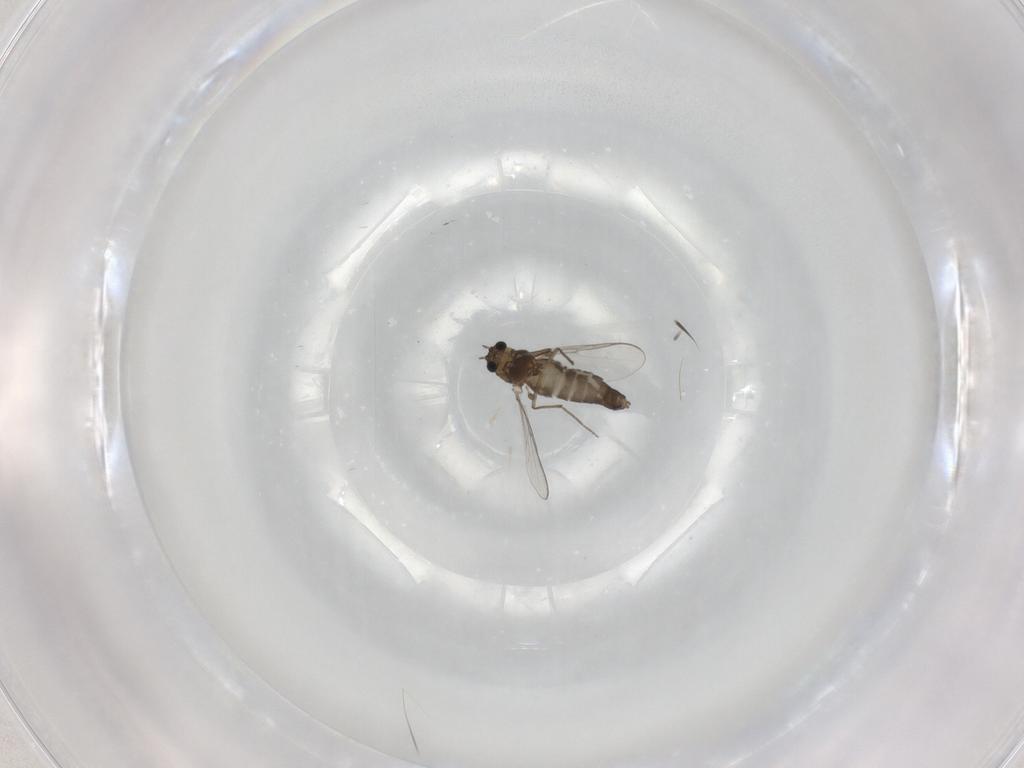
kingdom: Animalia
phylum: Arthropoda
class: Insecta
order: Diptera
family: Chironomidae
